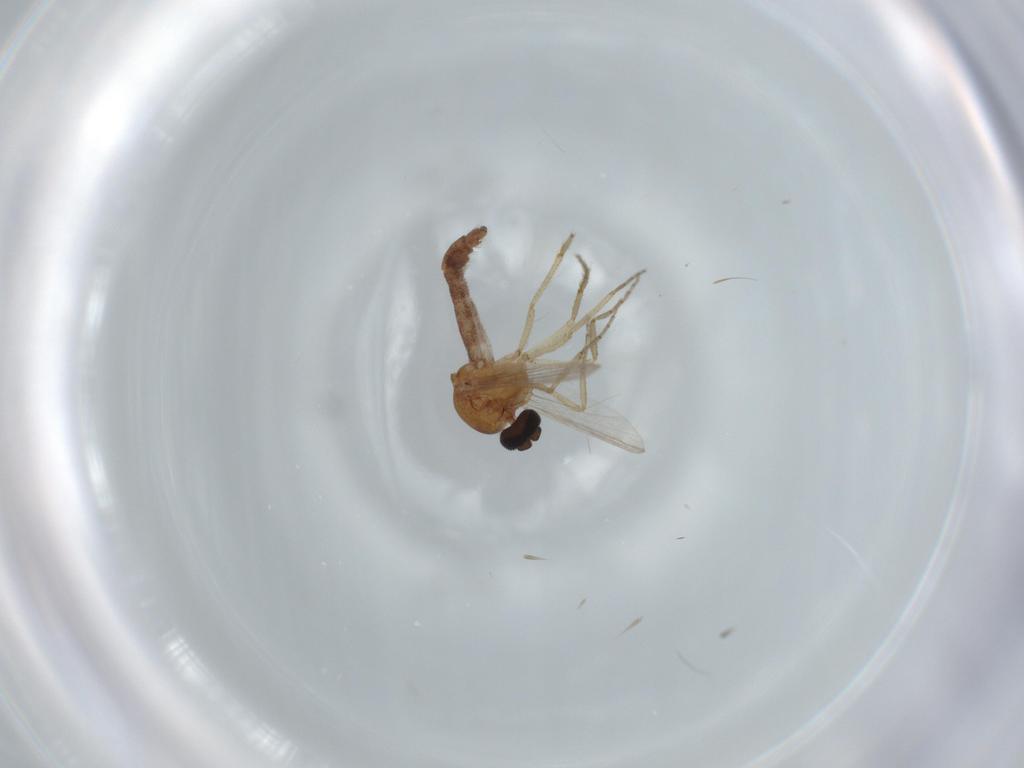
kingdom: Animalia
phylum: Arthropoda
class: Insecta
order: Diptera
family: Ceratopogonidae
